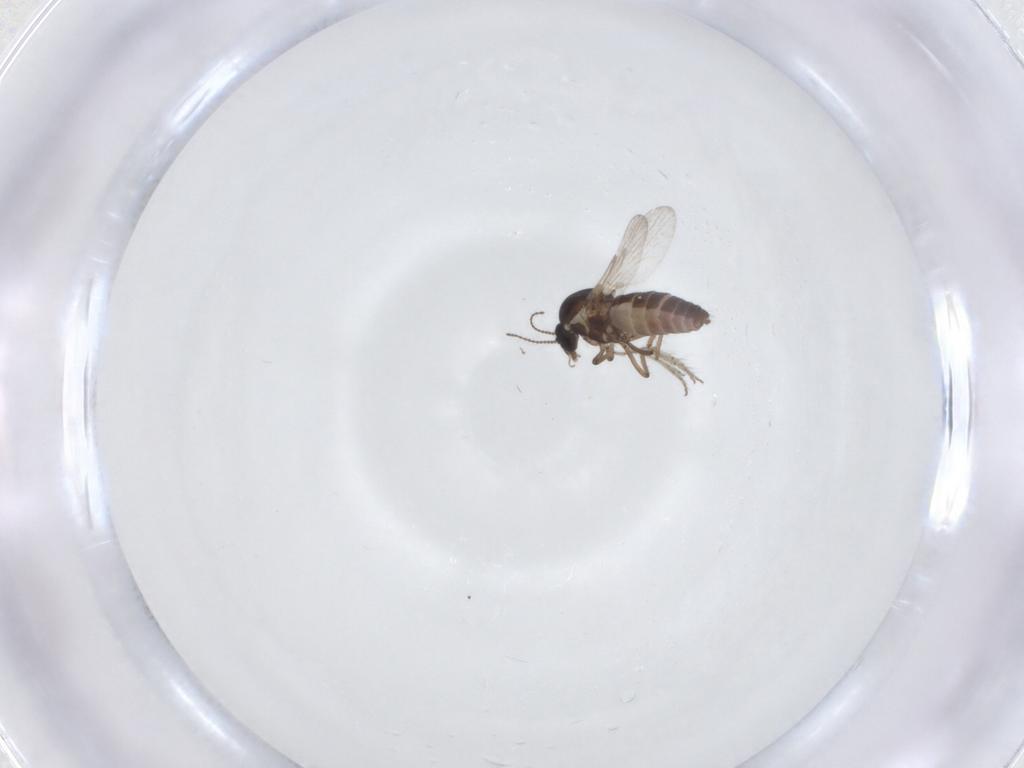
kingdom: Animalia
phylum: Arthropoda
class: Insecta
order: Diptera
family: Ceratopogonidae
